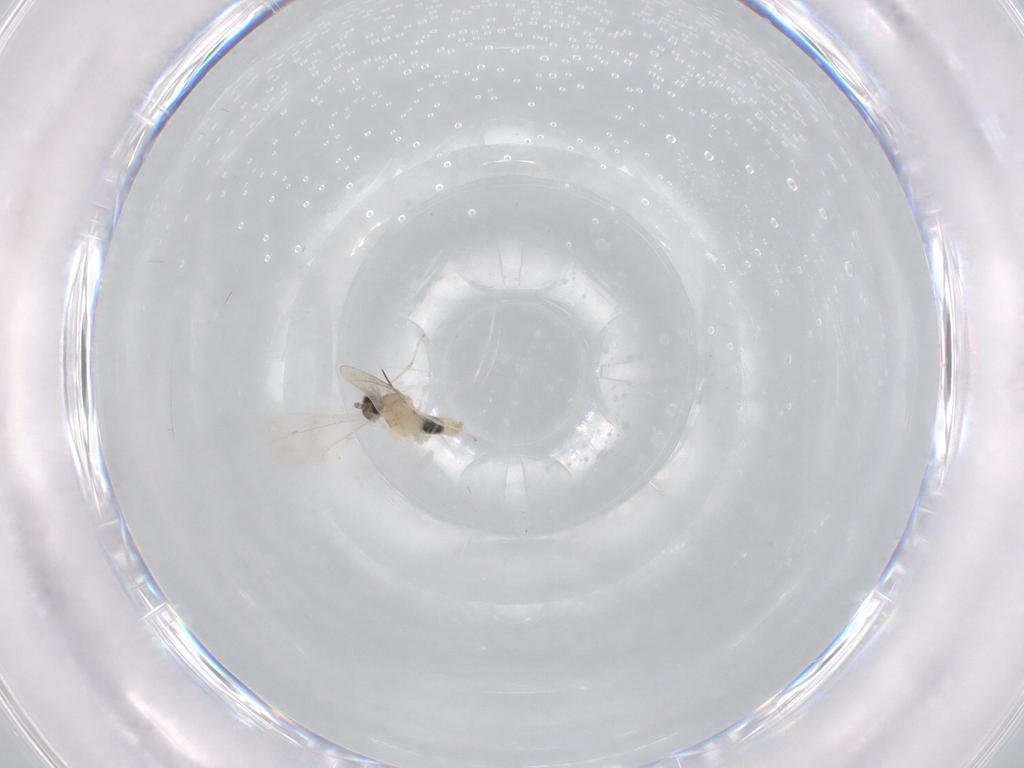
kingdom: Animalia
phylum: Arthropoda
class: Insecta
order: Diptera
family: Cecidomyiidae
